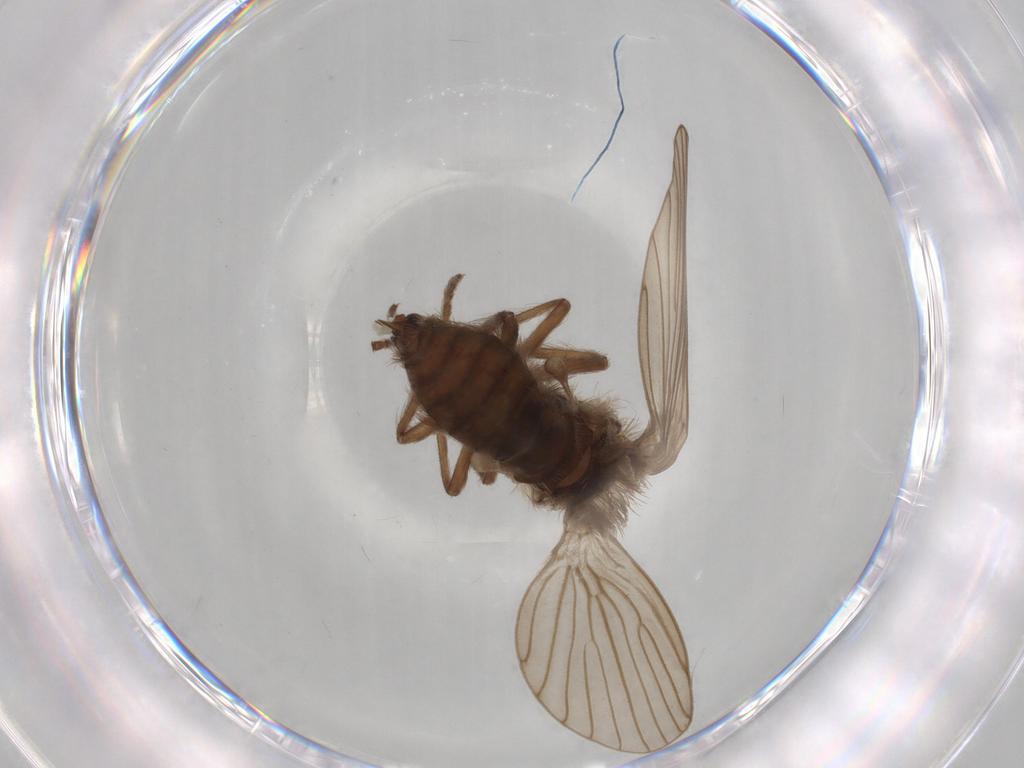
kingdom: Animalia
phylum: Arthropoda
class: Insecta
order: Diptera
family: Psychodidae
